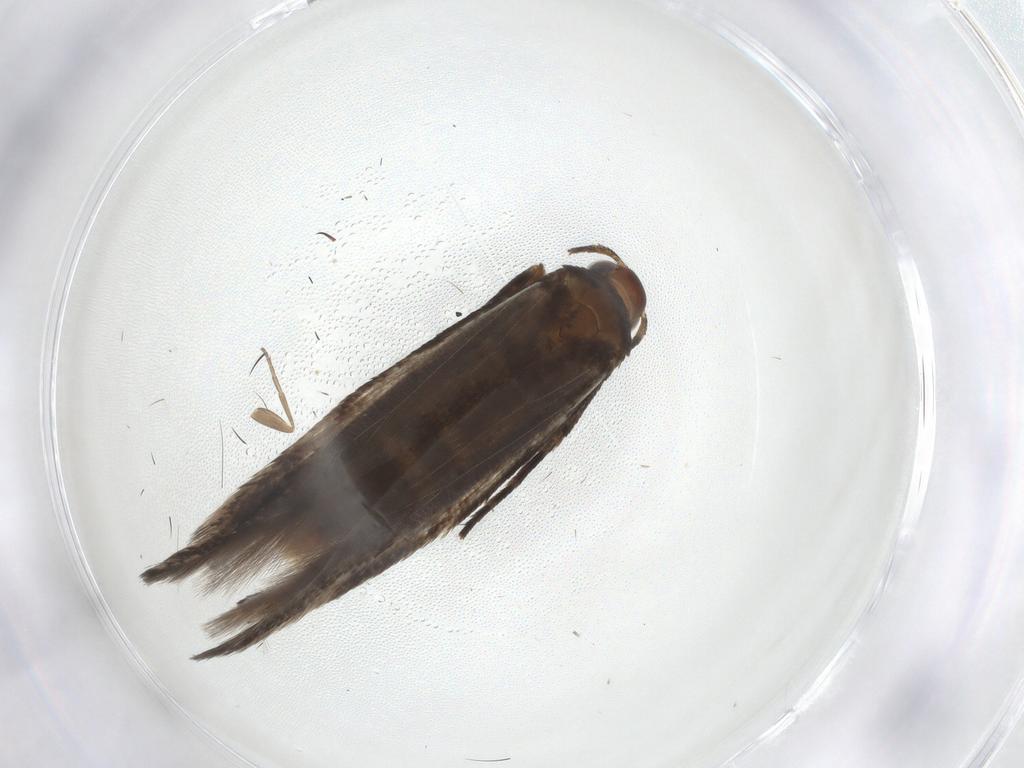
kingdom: Animalia
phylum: Arthropoda
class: Insecta
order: Lepidoptera
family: Gelechiidae
